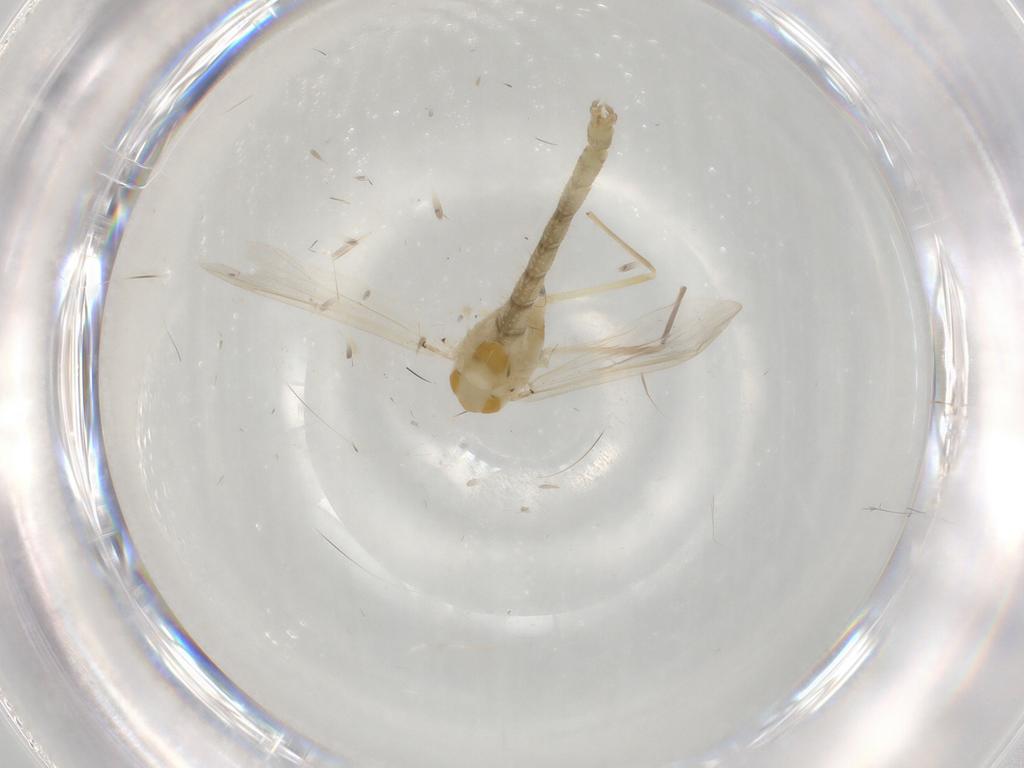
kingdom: Animalia
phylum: Arthropoda
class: Insecta
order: Diptera
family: Chironomidae
